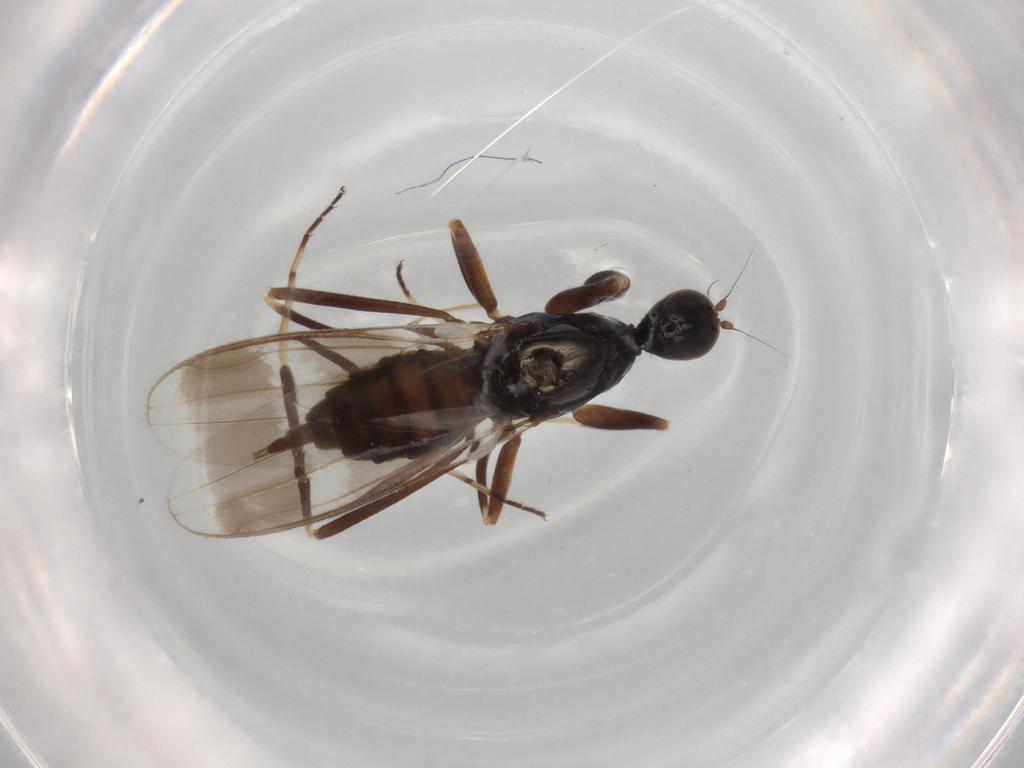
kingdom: Animalia
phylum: Arthropoda
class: Insecta
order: Diptera
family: Hybotidae
